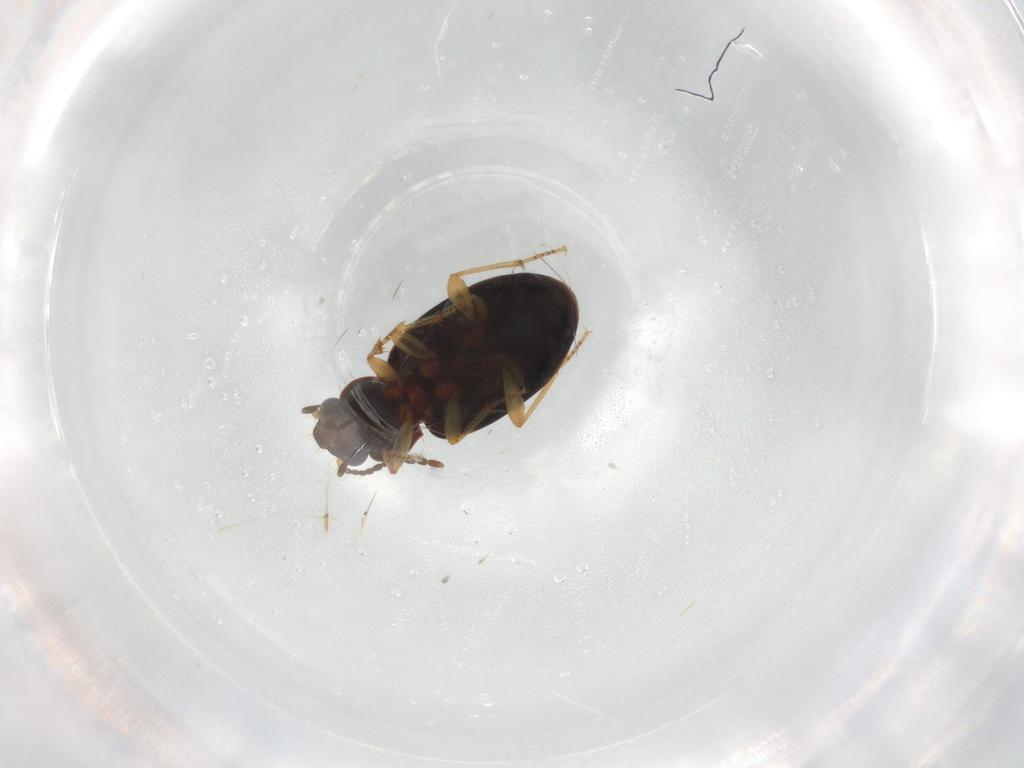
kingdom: Animalia
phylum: Arthropoda
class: Insecta
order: Coleoptera
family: Carabidae
